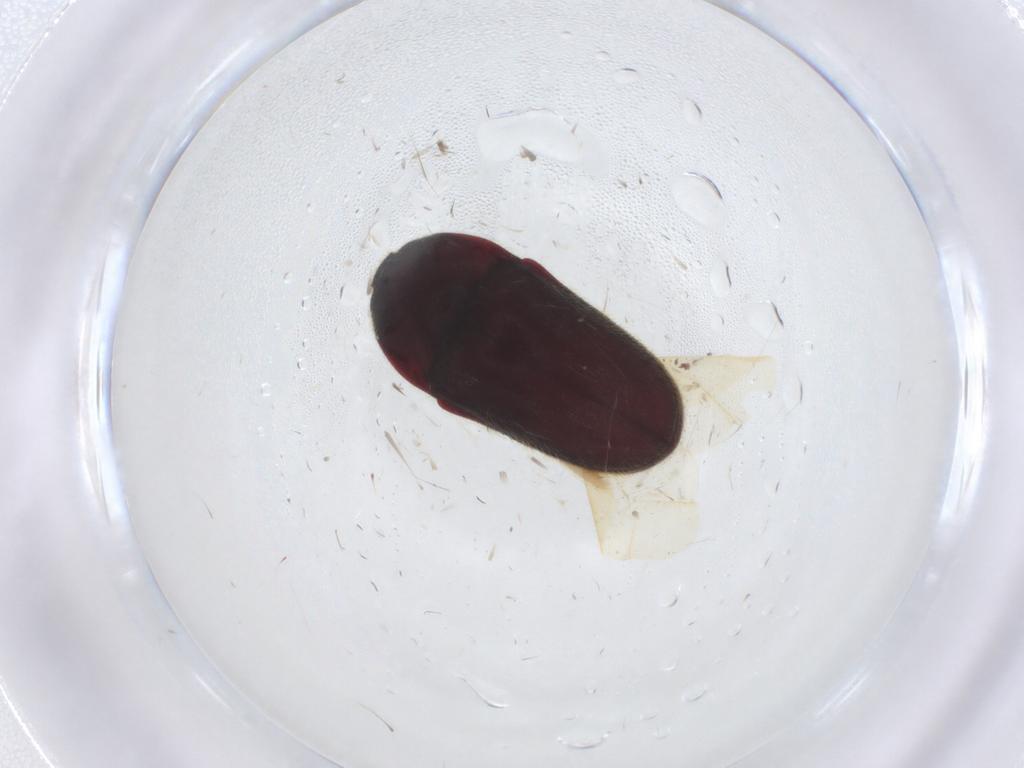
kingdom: Animalia
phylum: Arthropoda
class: Insecta
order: Coleoptera
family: Throscidae
